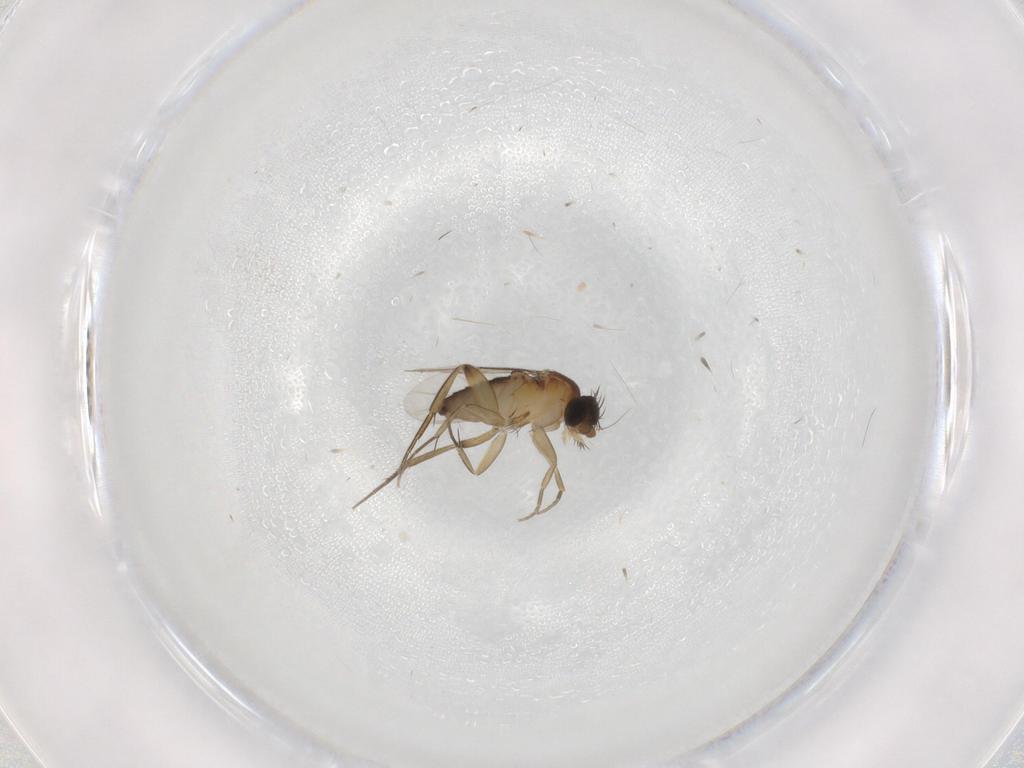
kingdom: Animalia
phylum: Arthropoda
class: Insecta
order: Diptera
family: Phoridae
